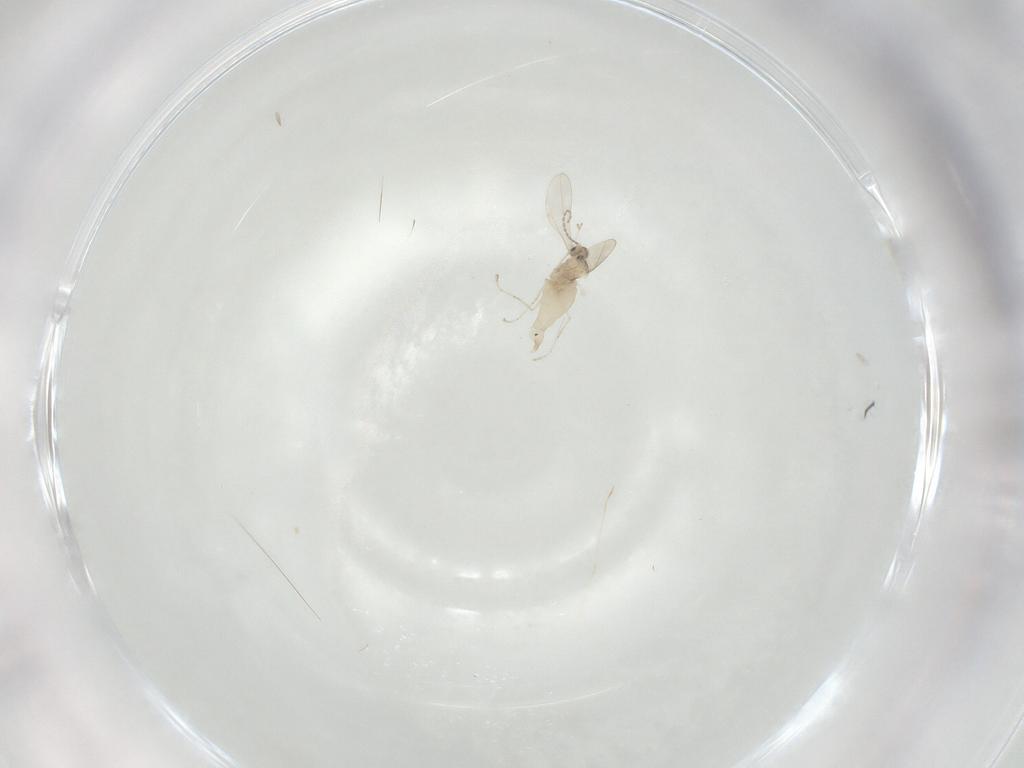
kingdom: Animalia
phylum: Arthropoda
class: Insecta
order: Diptera
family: Cecidomyiidae
